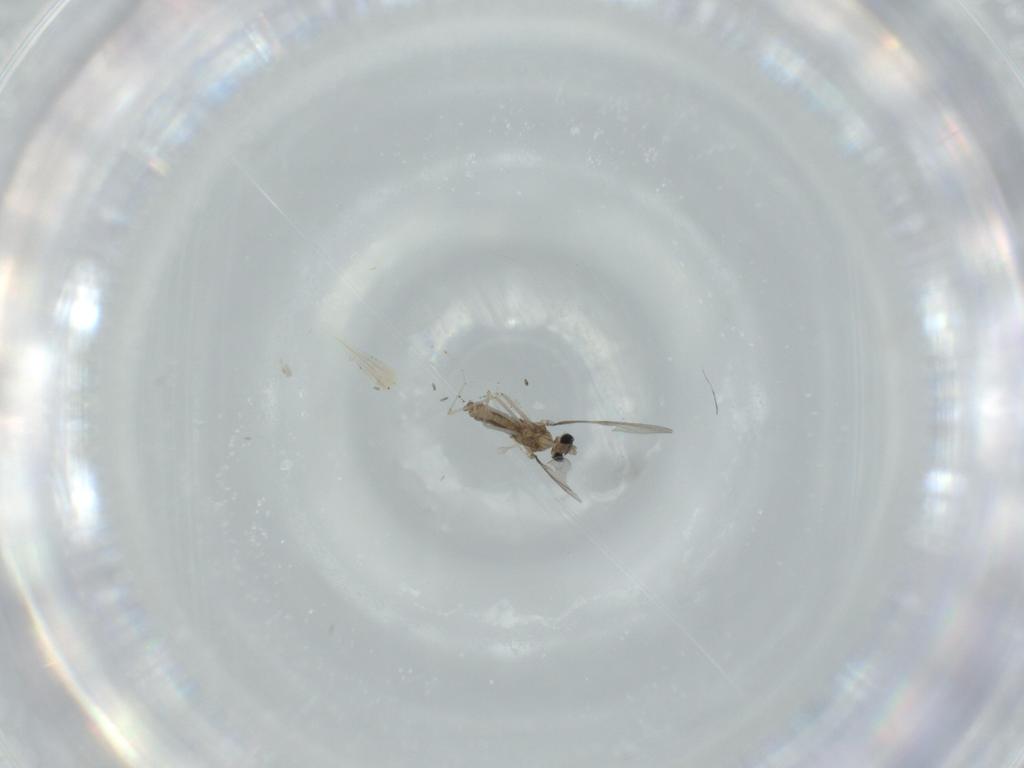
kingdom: Animalia
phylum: Arthropoda
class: Insecta
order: Diptera
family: Cecidomyiidae
